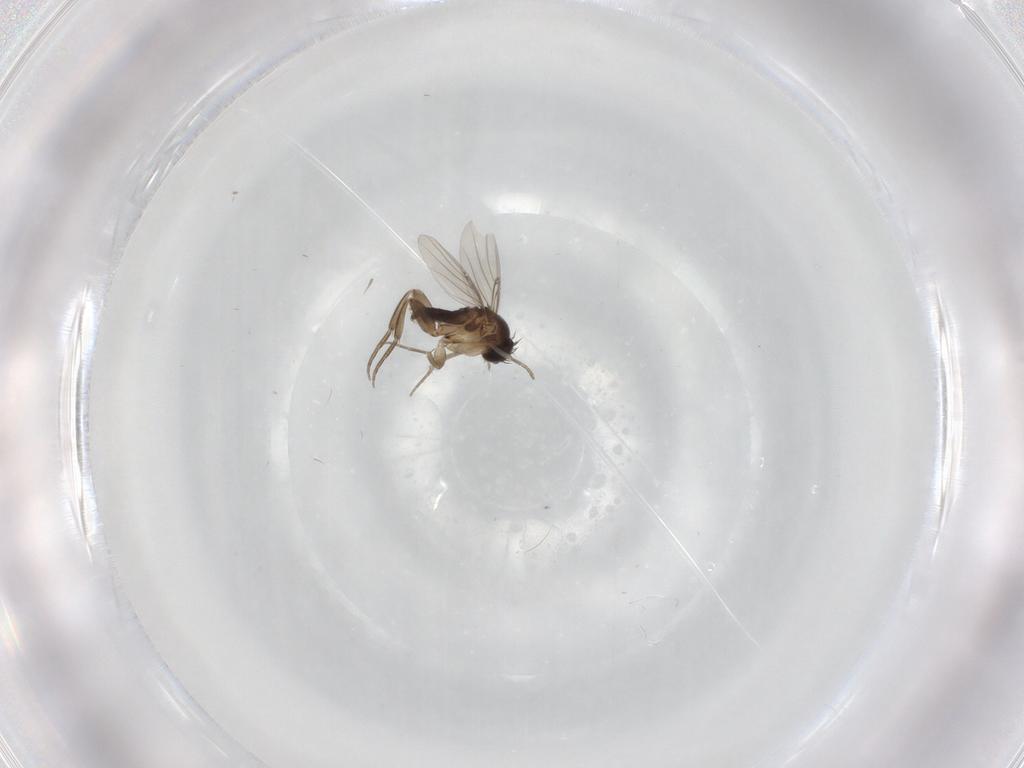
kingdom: Animalia
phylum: Arthropoda
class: Insecta
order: Diptera
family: Phoridae
